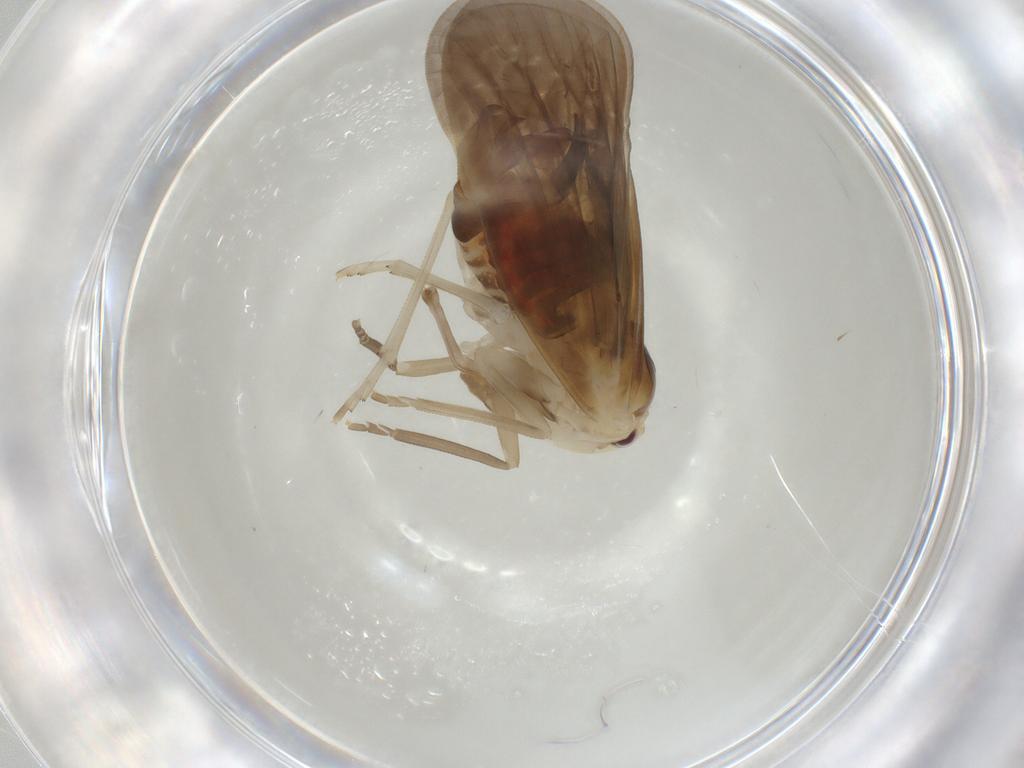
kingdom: Animalia
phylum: Arthropoda
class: Insecta
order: Hemiptera
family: Derbidae
